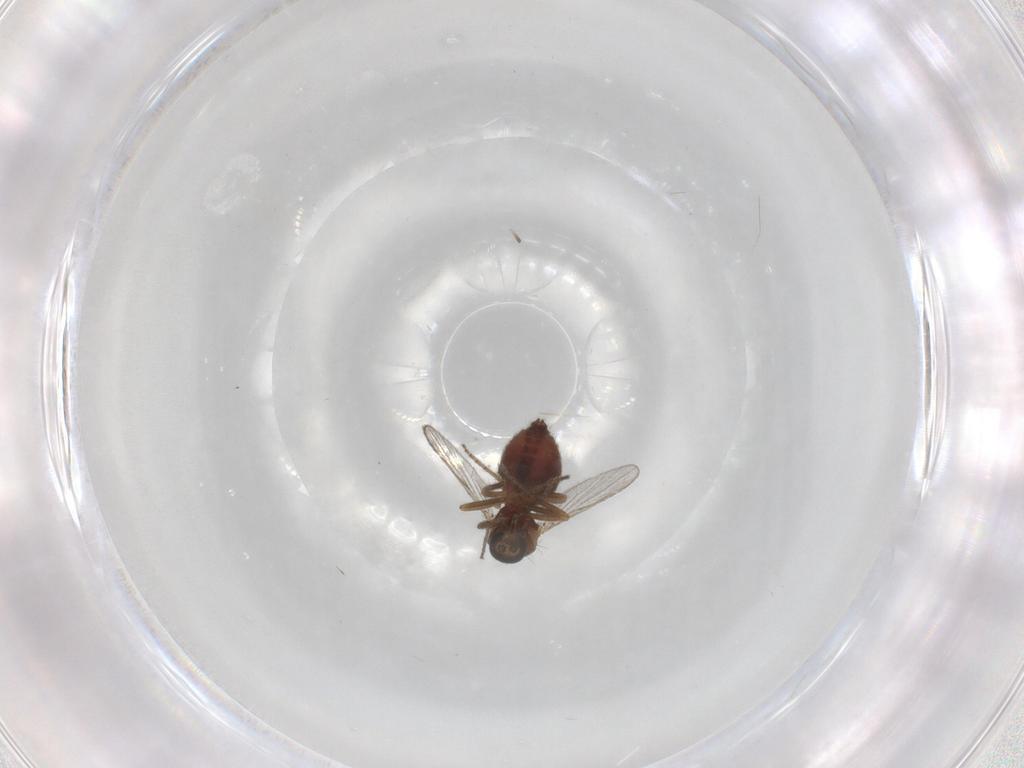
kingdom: Animalia
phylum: Arthropoda
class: Insecta
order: Diptera
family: Ceratopogonidae
